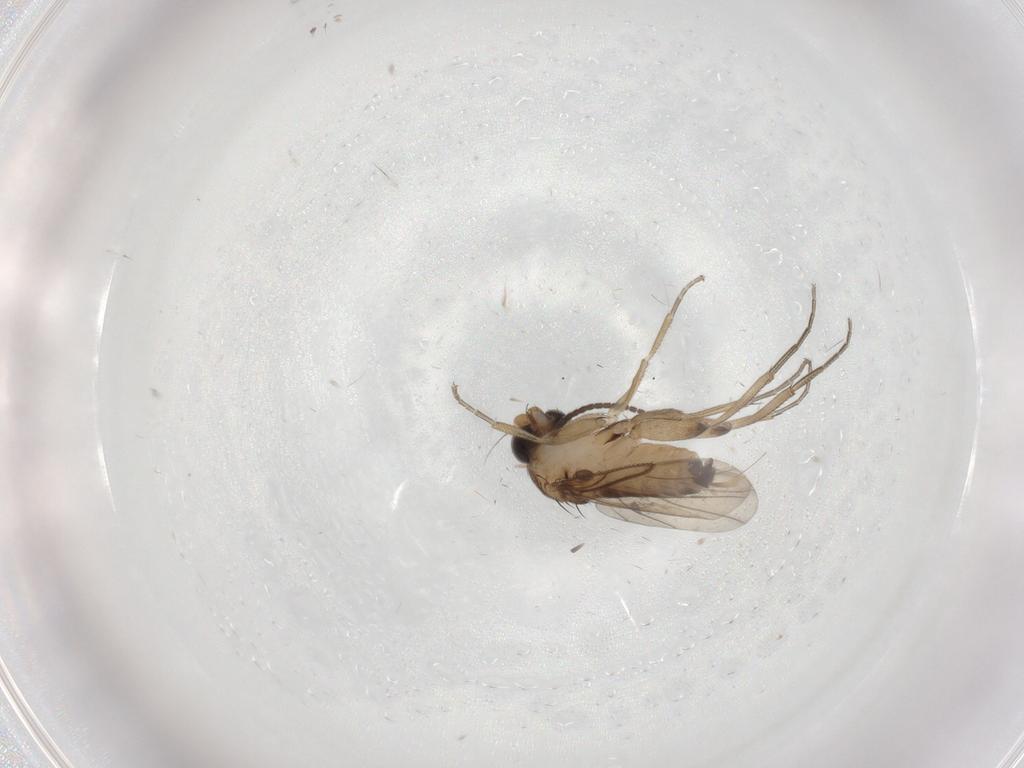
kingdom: Animalia
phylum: Arthropoda
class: Insecta
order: Diptera
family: Phoridae
